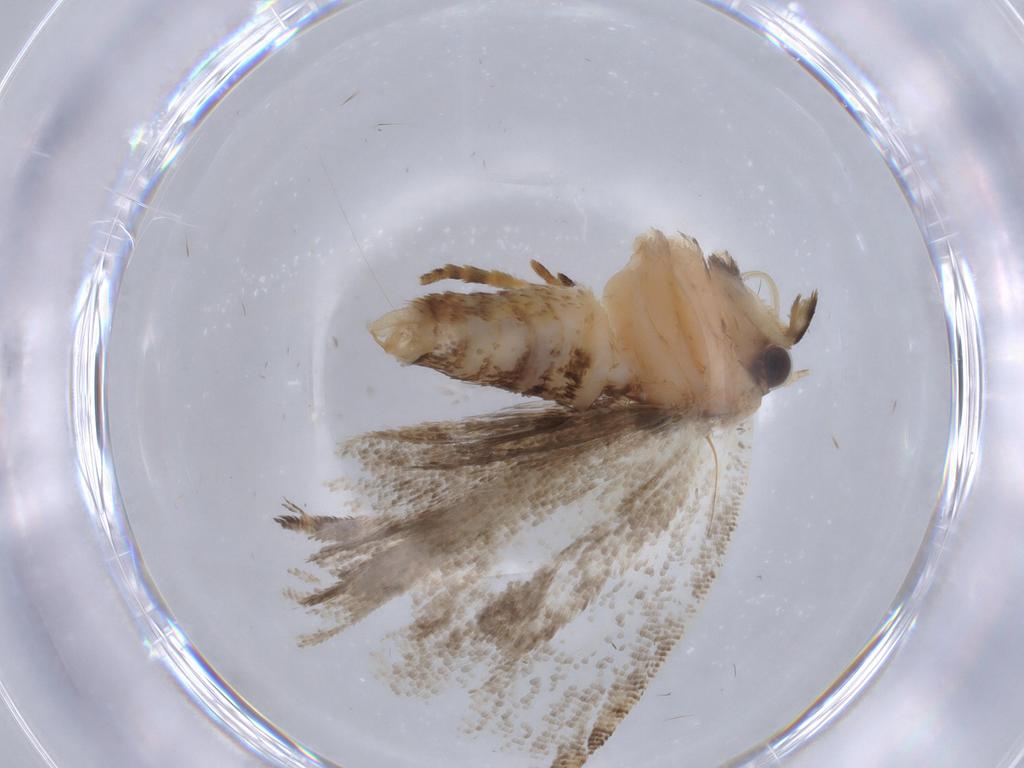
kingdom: Animalia
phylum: Arthropoda
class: Insecta
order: Lepidoptera
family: Tortricidae
